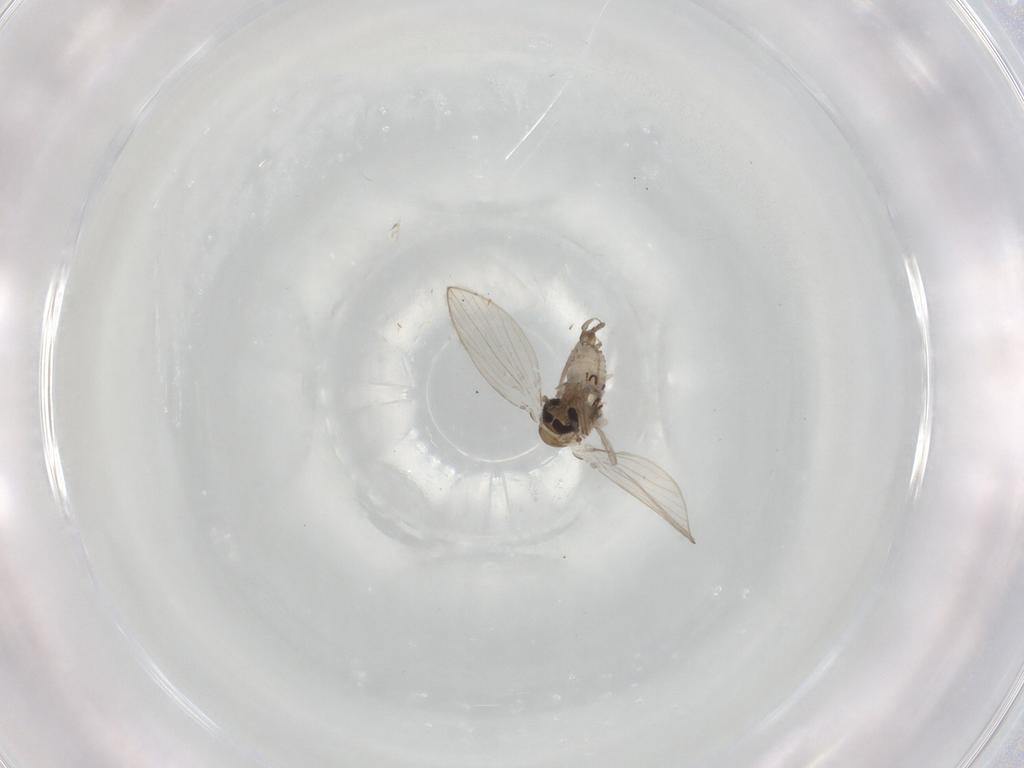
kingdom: Animalia
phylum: Arthropoda
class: Insecta
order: Diptera
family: Psychodidae
